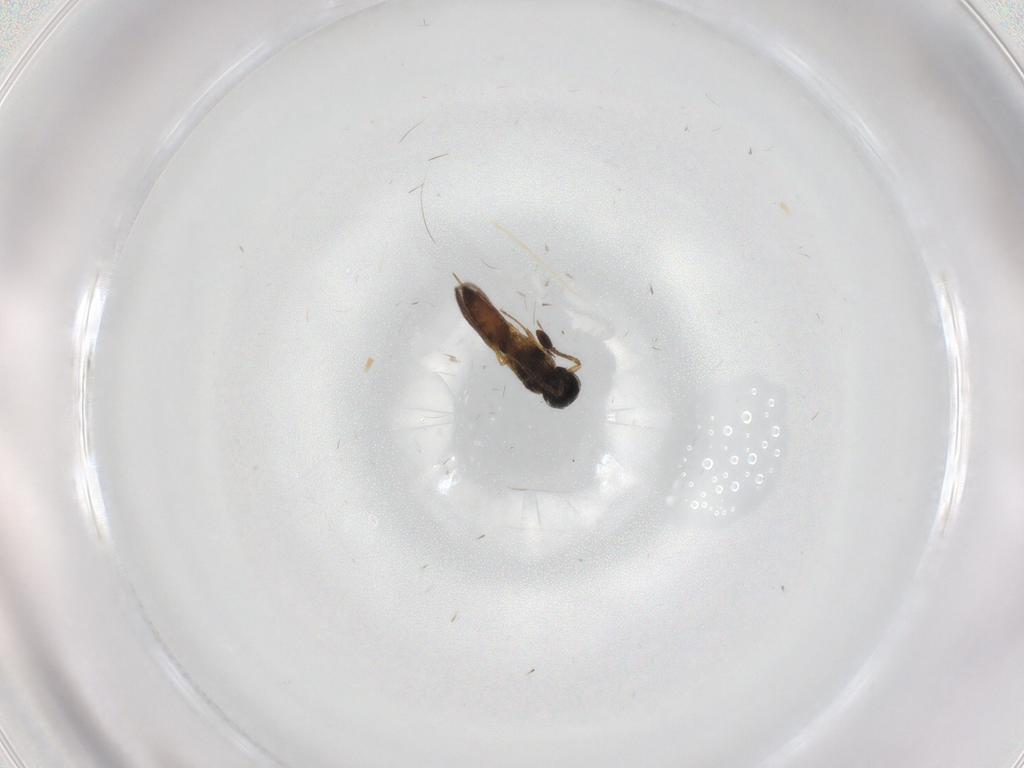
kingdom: Animalia
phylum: Arthropoda
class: Insecta
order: Hymenoptera
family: Scelionidae
